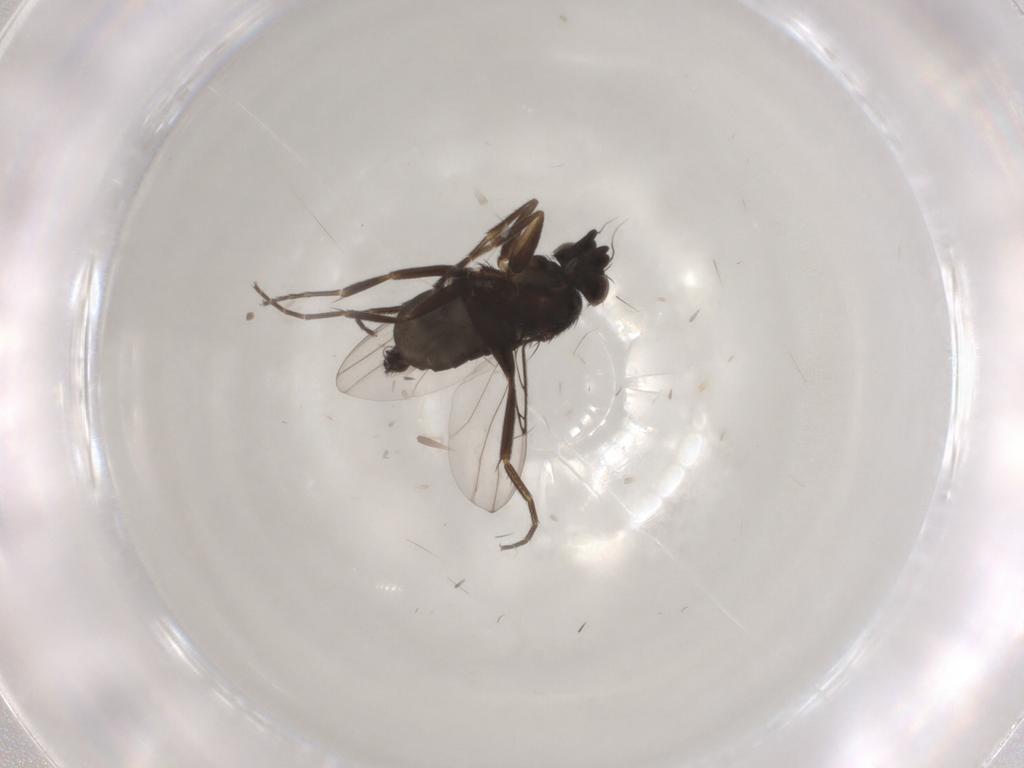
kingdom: Animalia
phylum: Arthropoda
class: Insecta
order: Diptera
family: Phoridae
